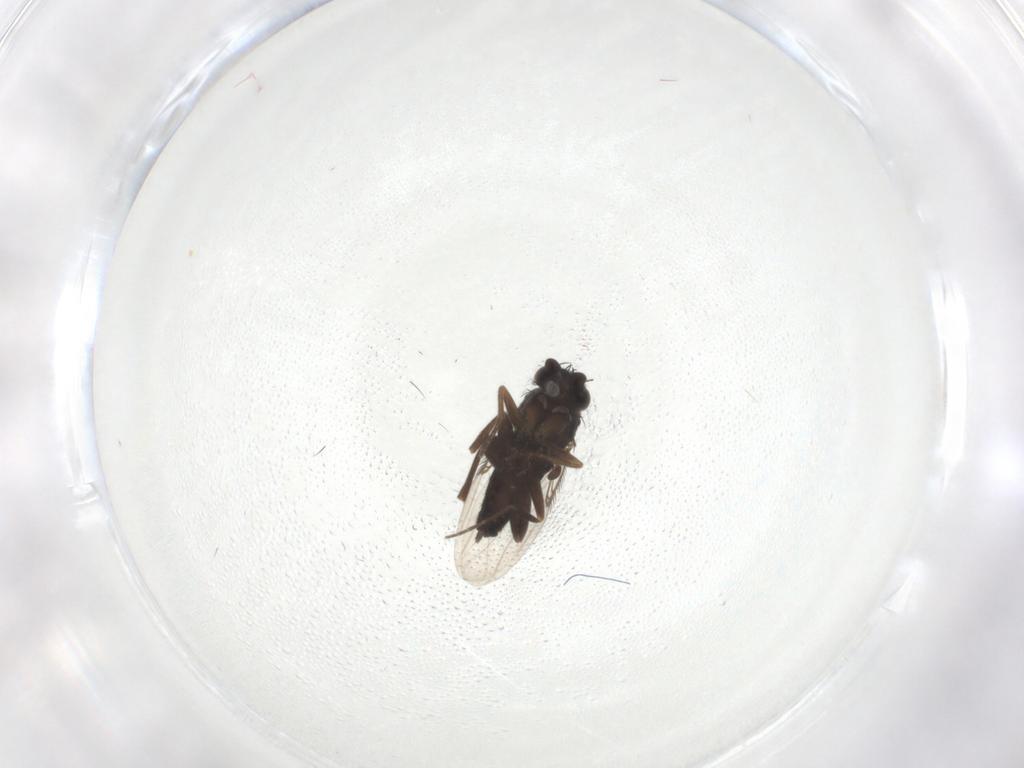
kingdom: Animalia
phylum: Arthropoda
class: Insecta
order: Diptera
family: Phoridae
